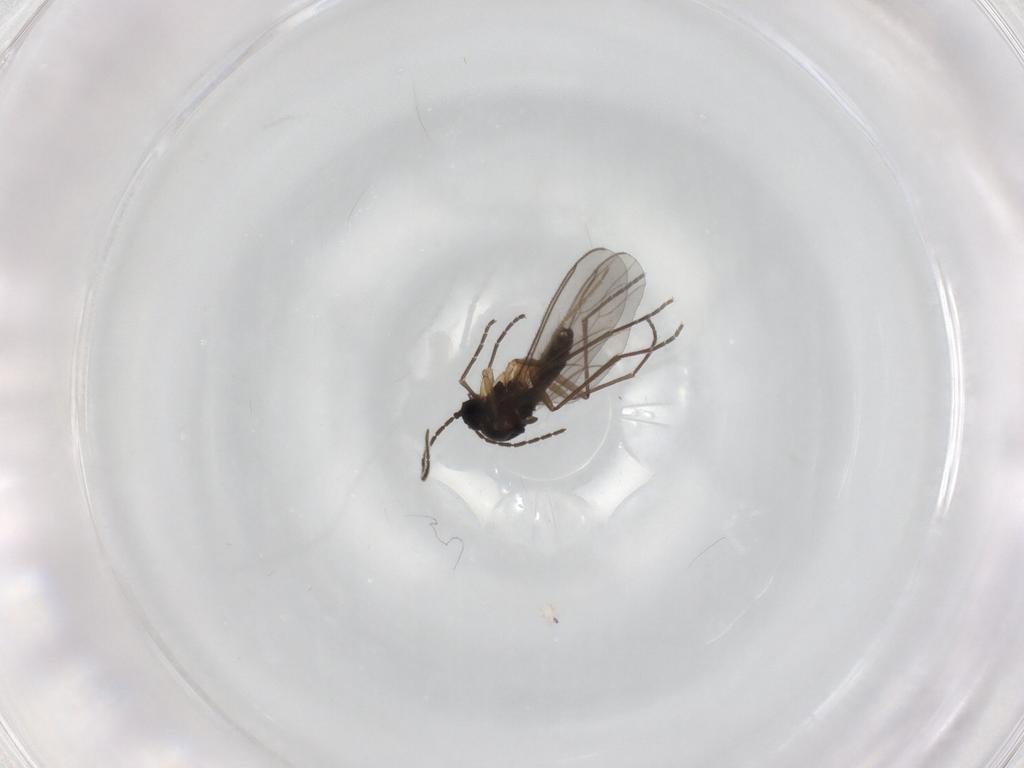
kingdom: Animalia
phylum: Arthropoda
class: Insecta
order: Diptera
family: Sciaridae
